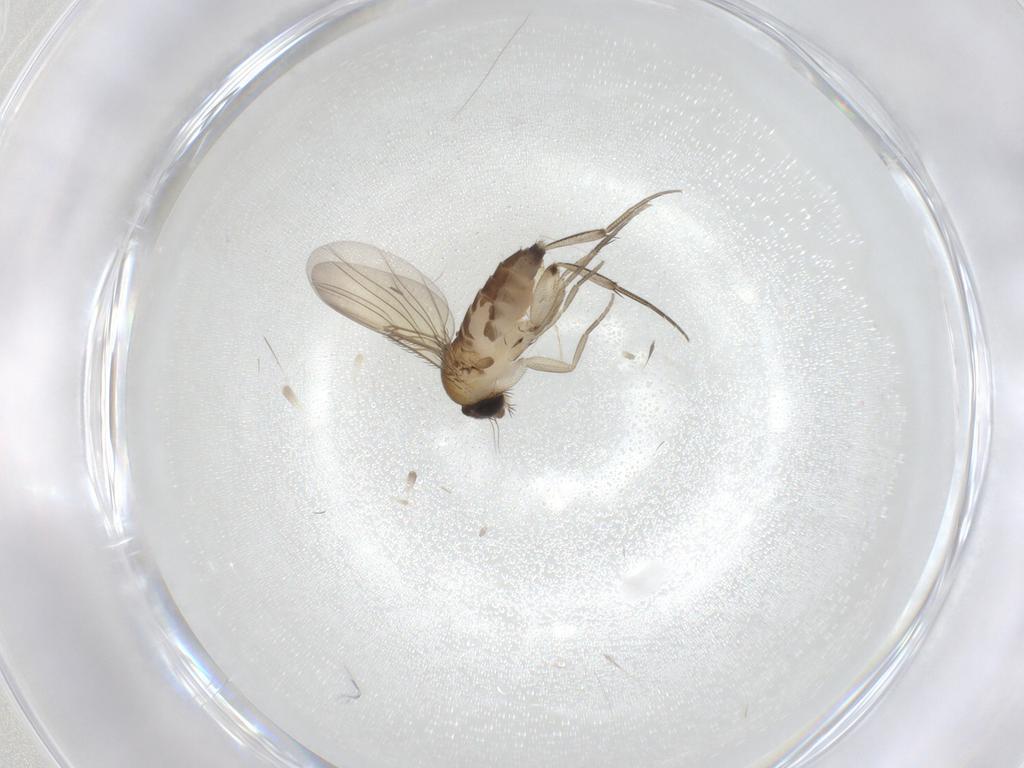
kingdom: Animalia
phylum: Arthropoda
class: Insecta
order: Diptera
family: Phoridae
